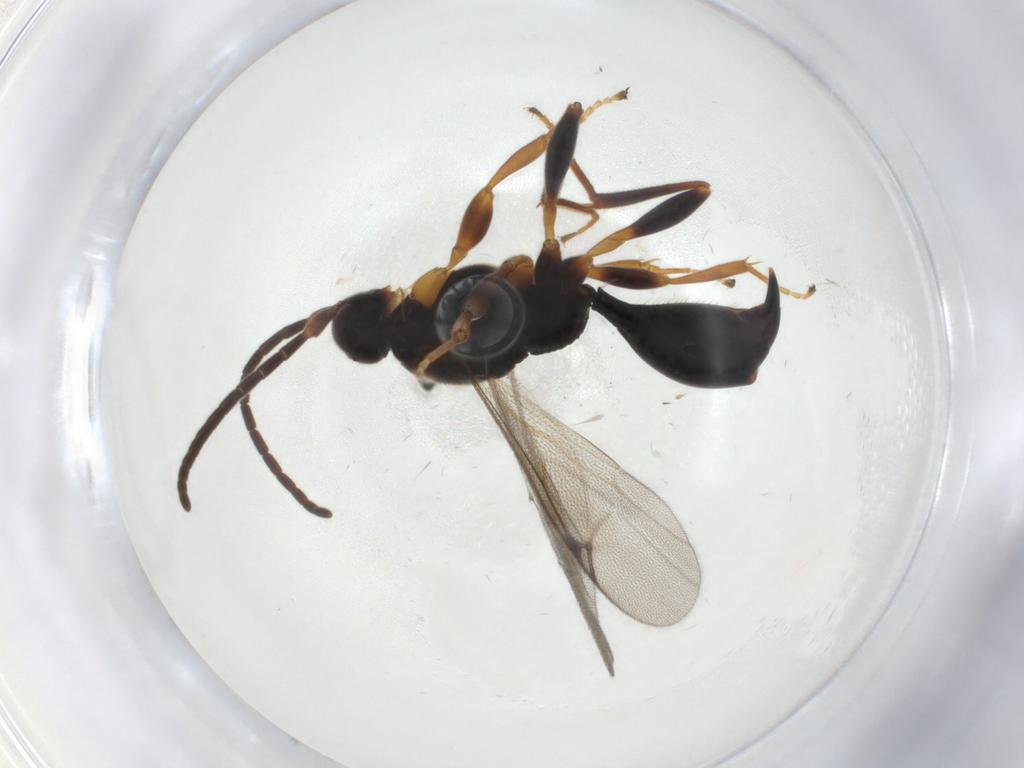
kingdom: Animalia
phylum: Arthropoda
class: Insecta
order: Hymenoptera
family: Proctotrupidae
